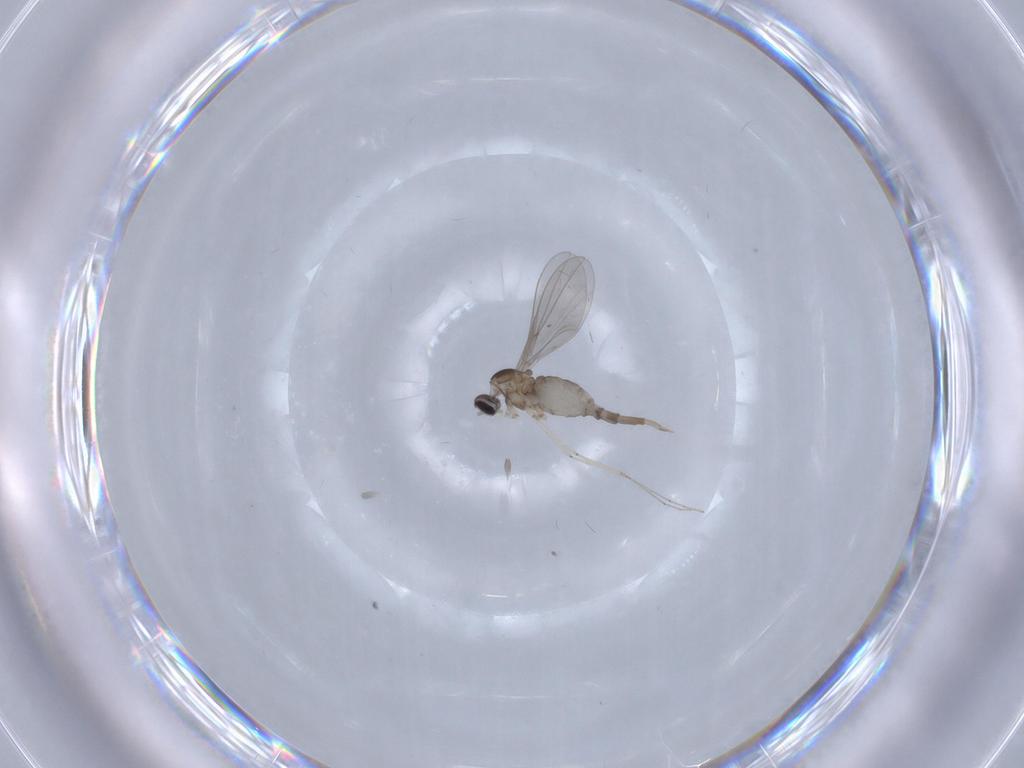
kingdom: Animalia
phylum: Arthropoda
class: Insecta
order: Diptera
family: Cecidomyiidae
